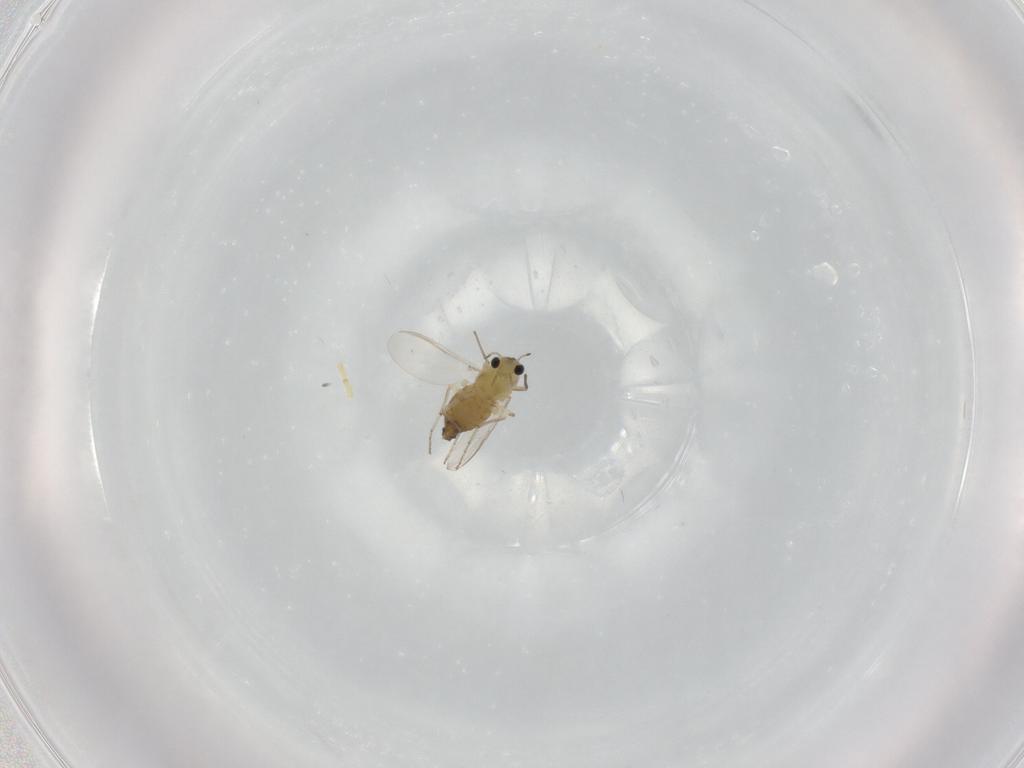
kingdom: Animalia
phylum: Arthropoda
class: Insecta
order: Diptera
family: Chironomidae
